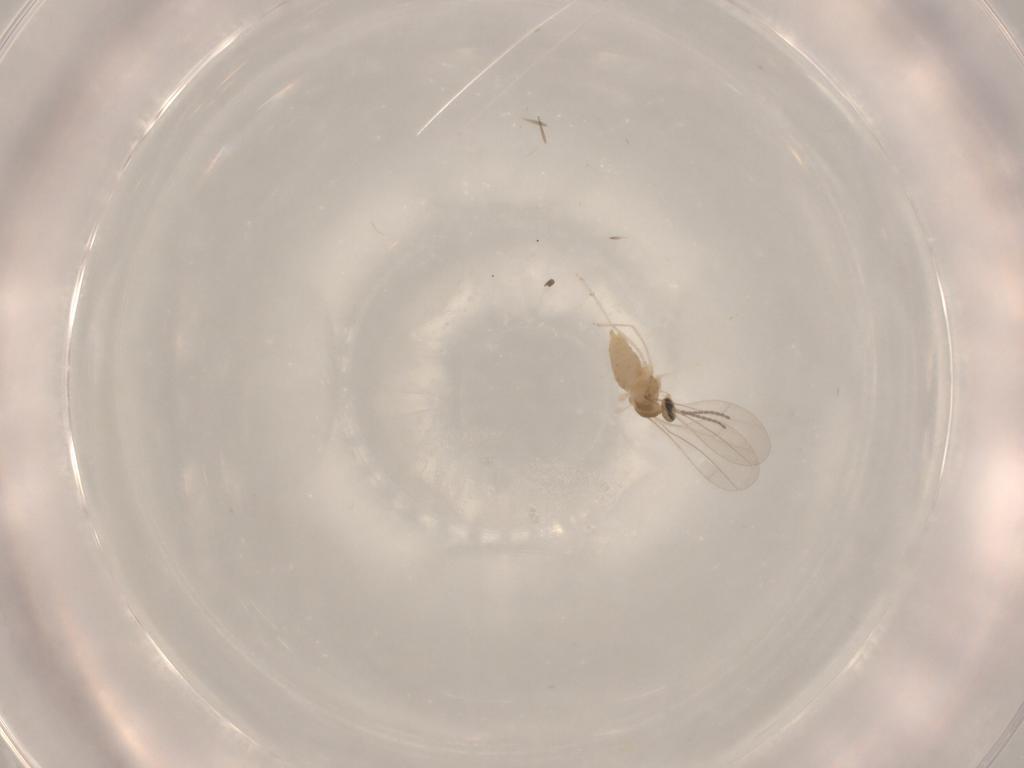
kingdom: Animalia
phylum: Arthropoda
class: Insecta
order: Diptera
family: Cecidomyiidae
